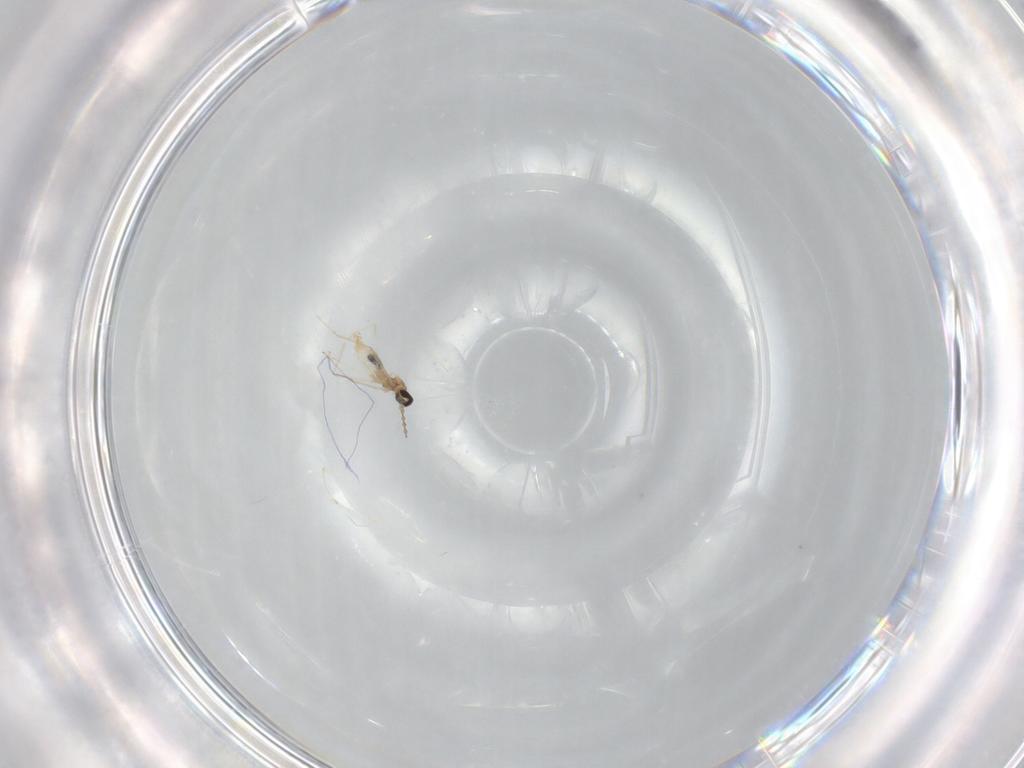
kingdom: Animalia
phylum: Arthropoda
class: Insecta
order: Diptera
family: Cecidomyiidae
